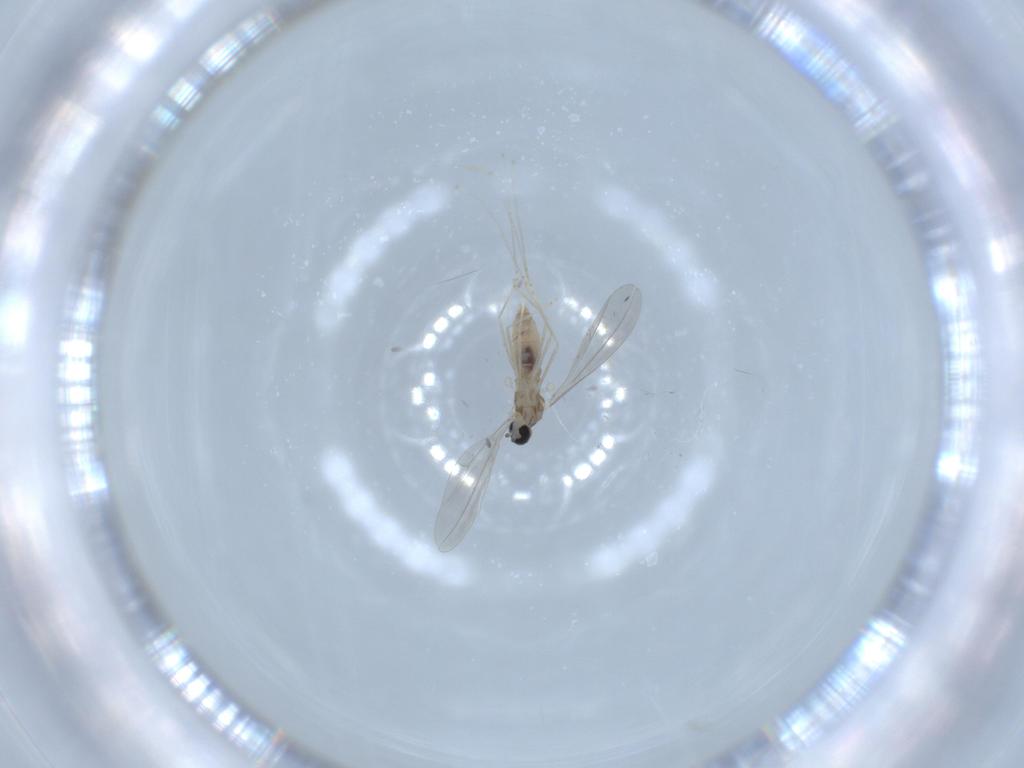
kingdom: Animalia
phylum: Arthropoda
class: Insecta
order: Diptera
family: Cecidomyiidae
